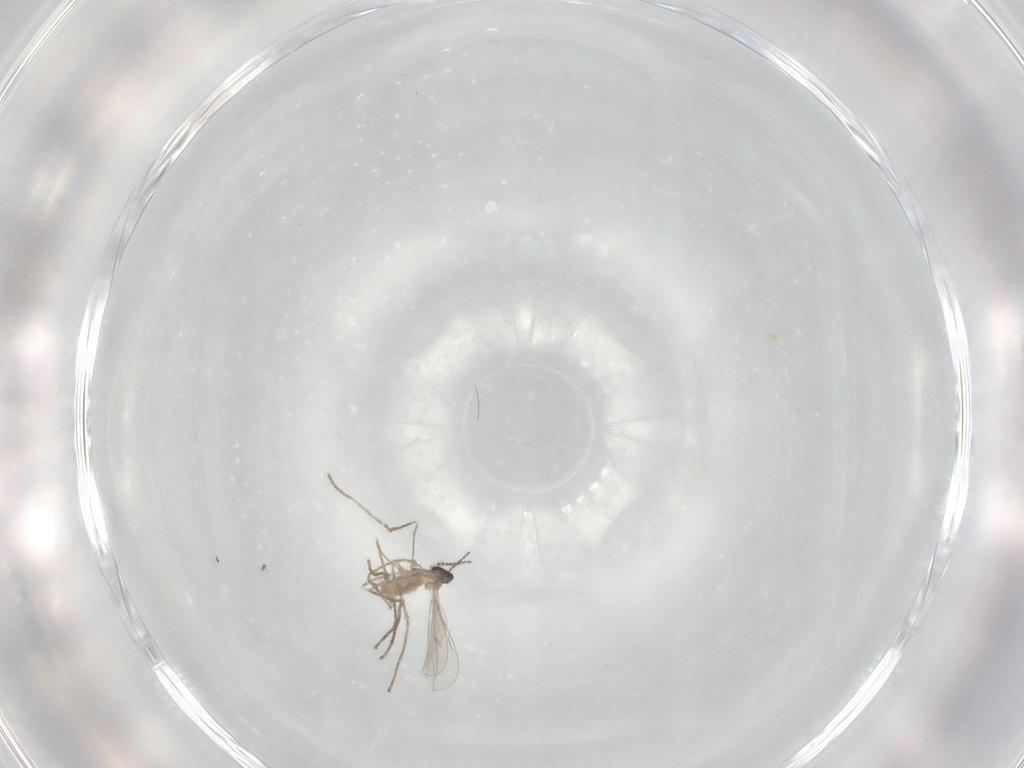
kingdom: Animalia
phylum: Arthropoda
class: Insecta
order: Diptera
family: Cecidomyiidae
